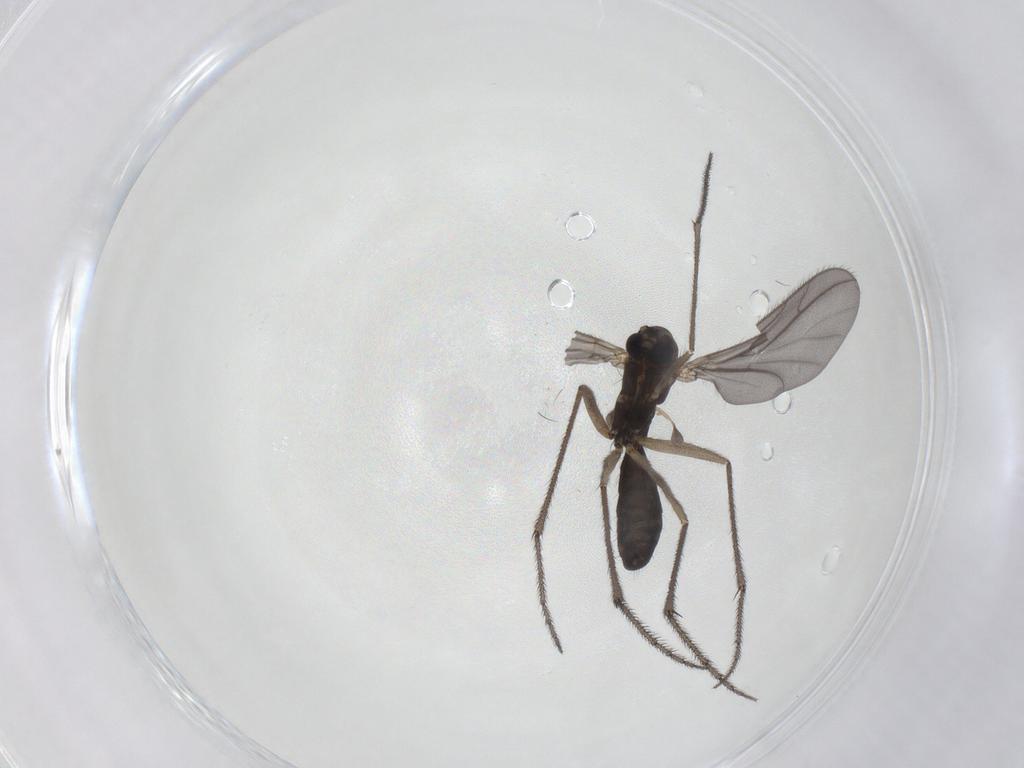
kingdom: Animalia
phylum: Arthropoda
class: Insecta
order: Diptera
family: Ditomyiidae
